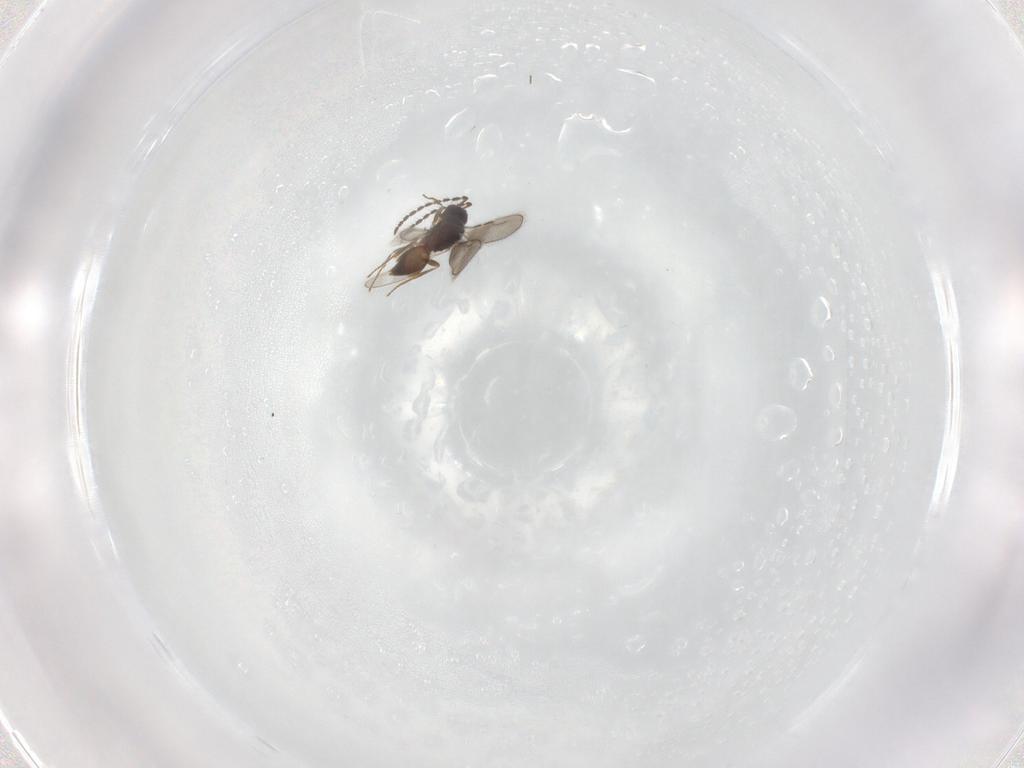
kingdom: Animalia
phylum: Arthropoda
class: Insecta
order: Hymenoptera
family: Ceraphronidae
